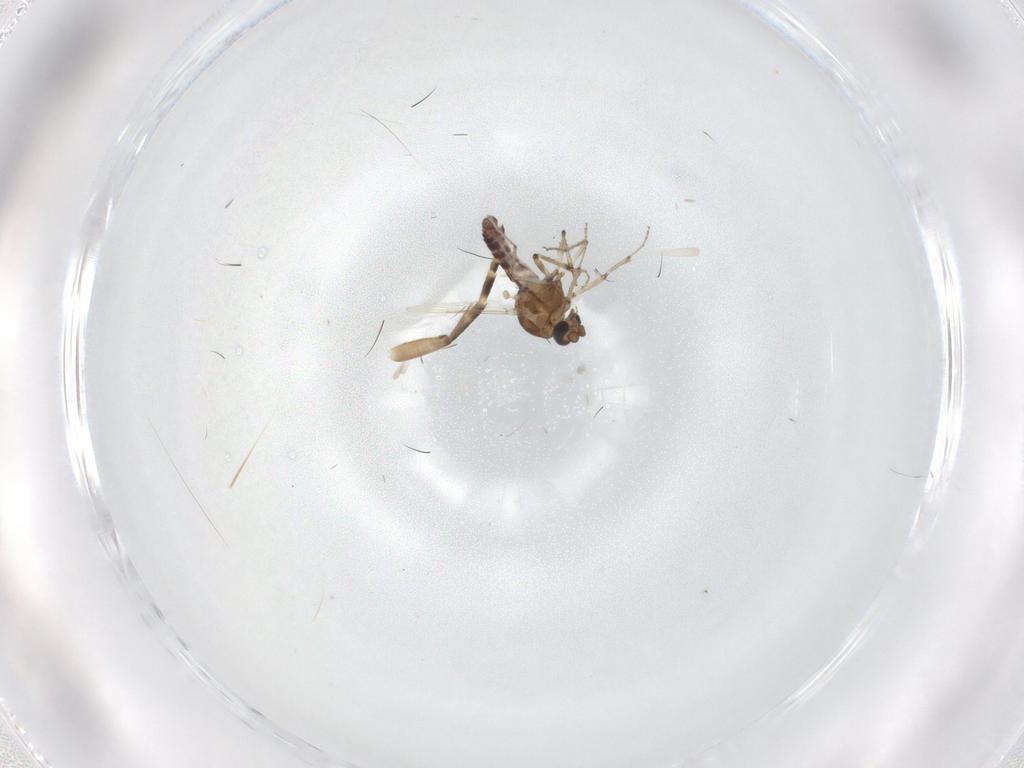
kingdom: Animalia
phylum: Arthropoda
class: Insecta
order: Diptera
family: Ceratopogonidae
